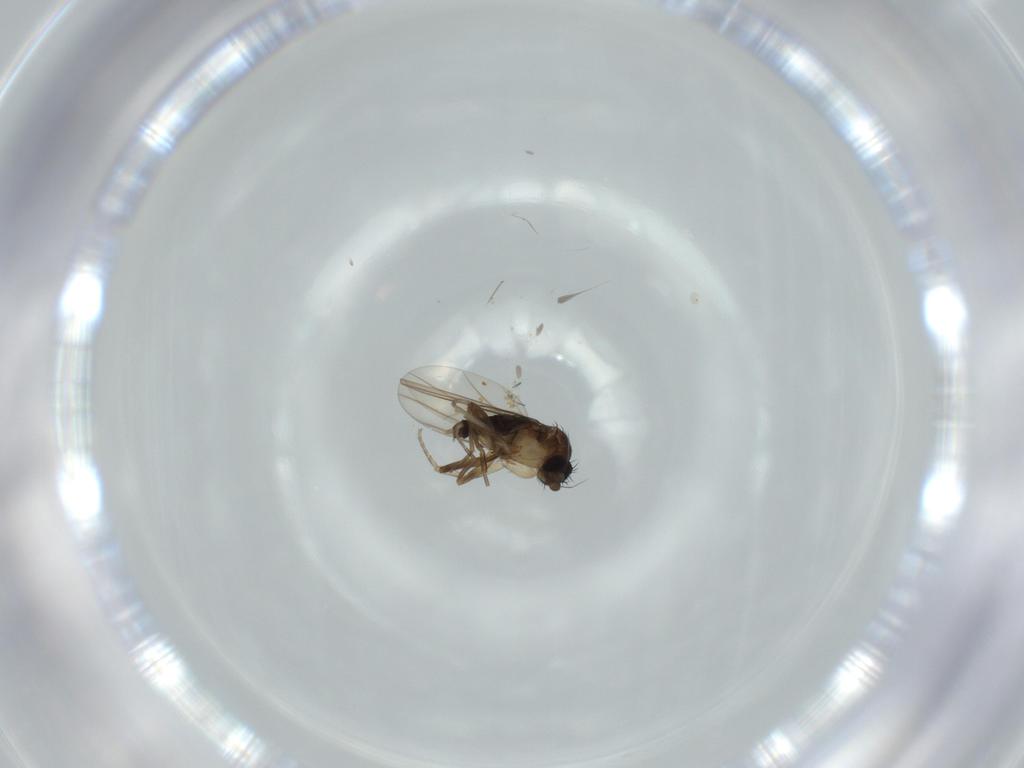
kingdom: Animalia
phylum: Arthropoda
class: Insecta
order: Diptera
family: Phoridae
